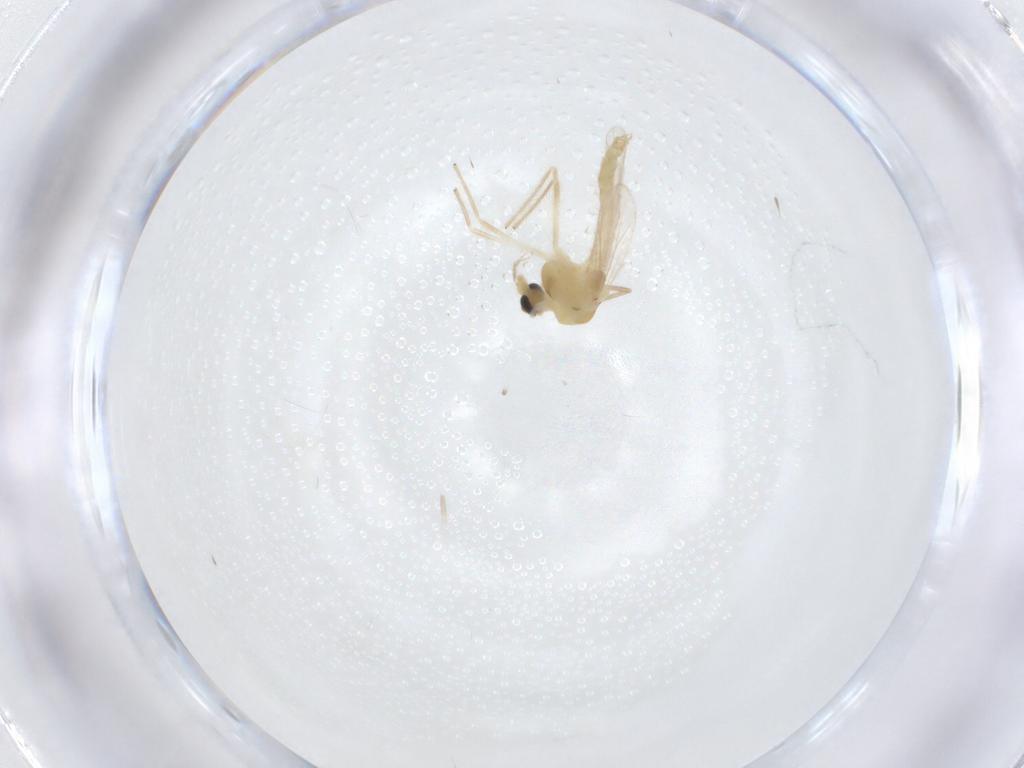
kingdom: Animalia
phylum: Arthropoda
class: Insecta
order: Diptera
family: Chironomidae
